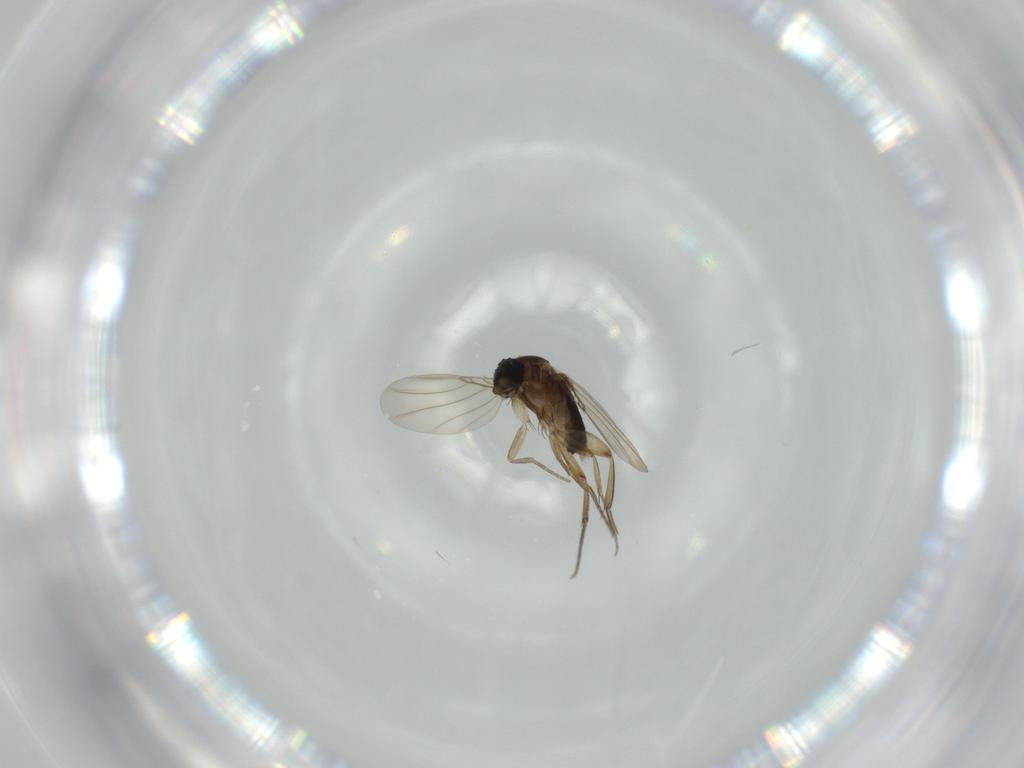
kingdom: Animalia
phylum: Arthropoda
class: Insecta
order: Diptera
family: Phoridae
